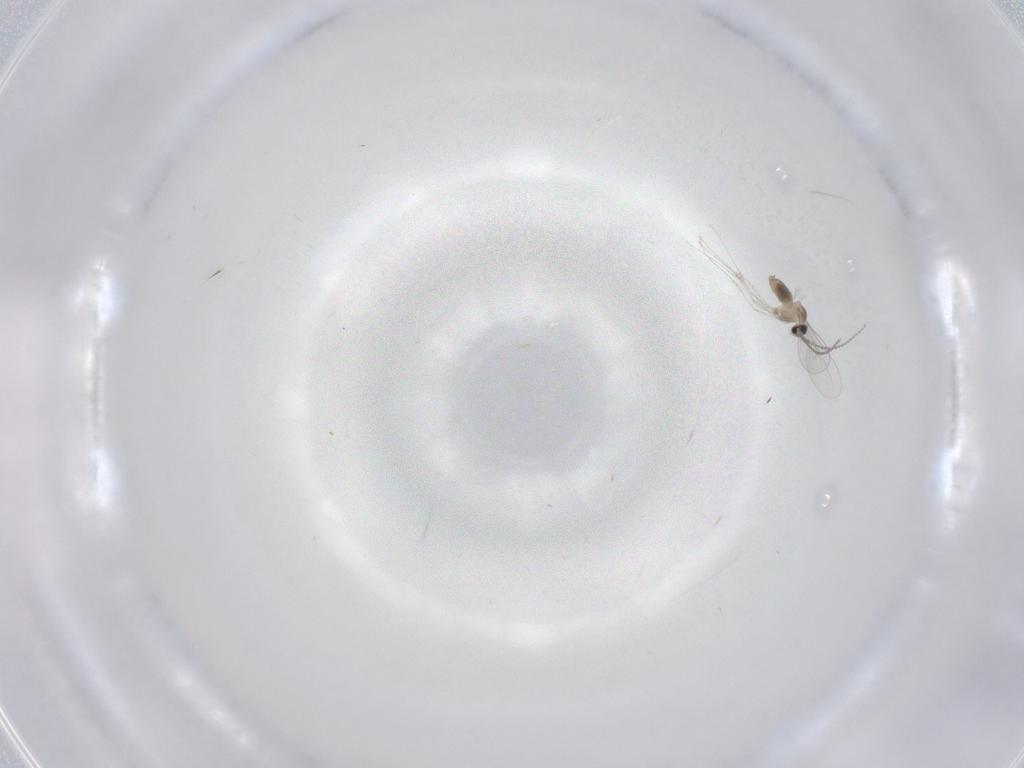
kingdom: Animalia
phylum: Arthropoda
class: Insecta
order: Diptera
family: Cecidomyiidae
